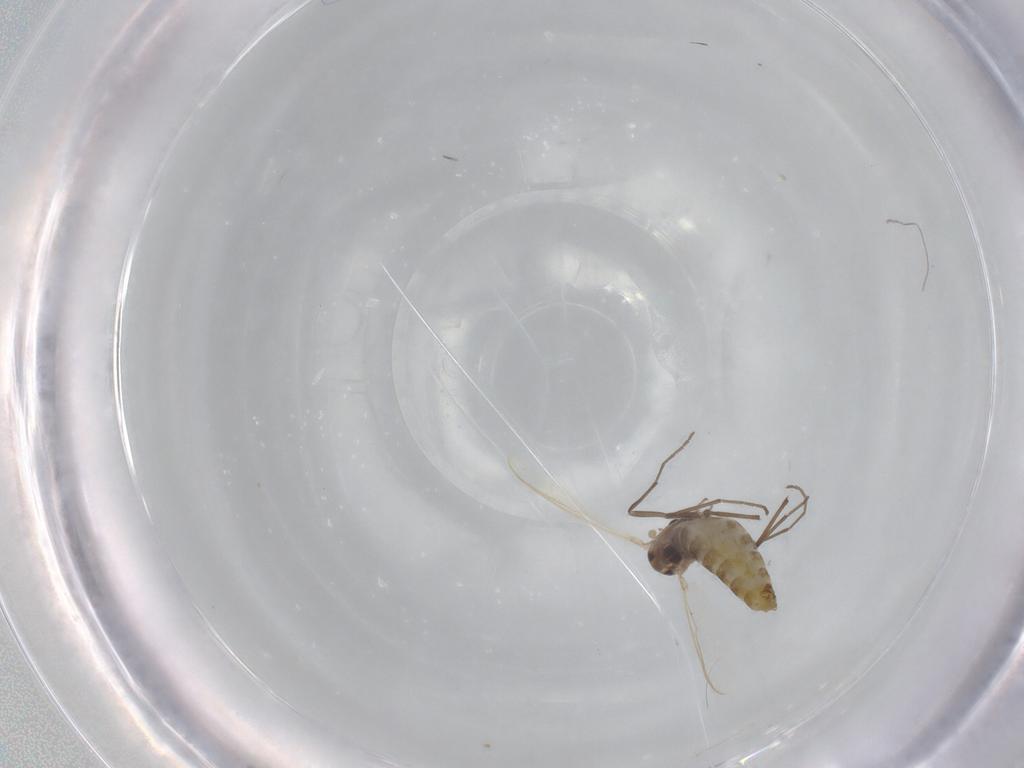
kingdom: Animalia
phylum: Arthropoda
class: Insecta
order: Diptera
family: Chironomidae
